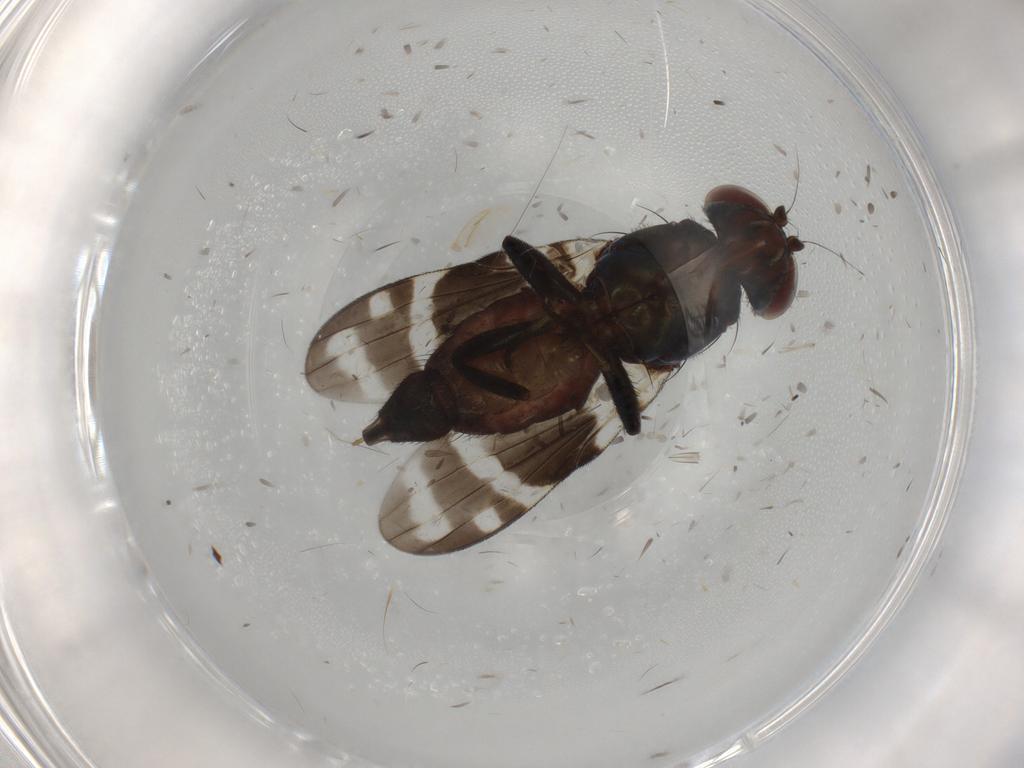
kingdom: Animalia
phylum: Arthropoda
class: Insecta
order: Diptera
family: Ulidiidae
